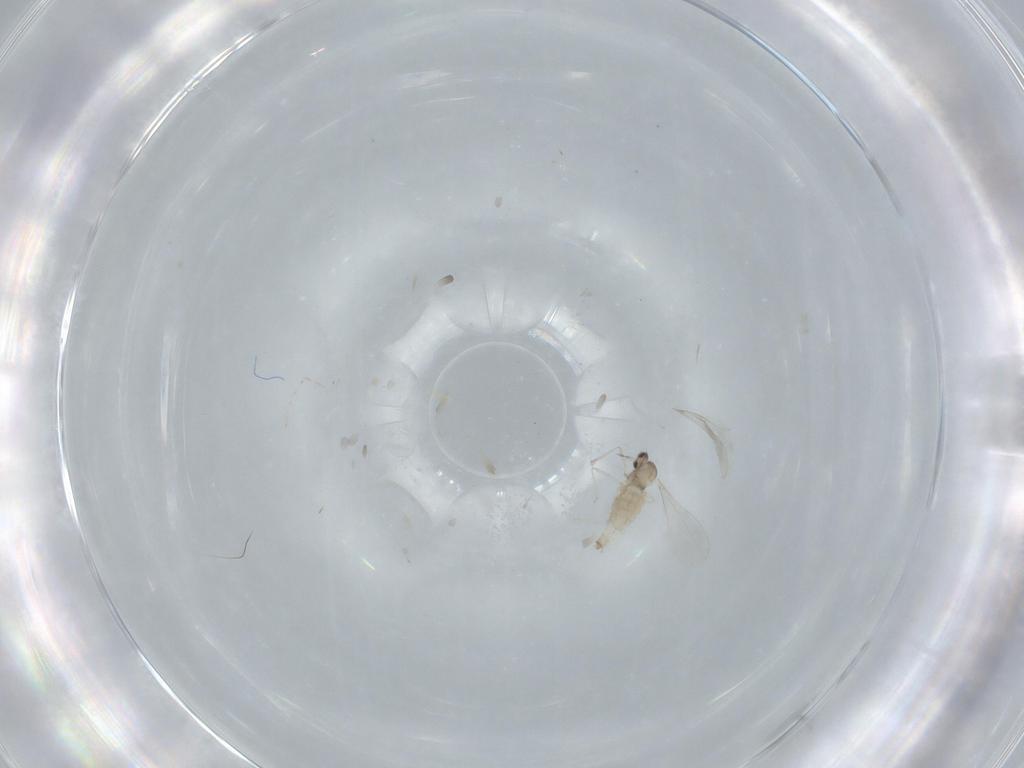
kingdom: Animalia
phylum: Arthropoda
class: Insecta
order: Diptera
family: Cecidomyiidae
